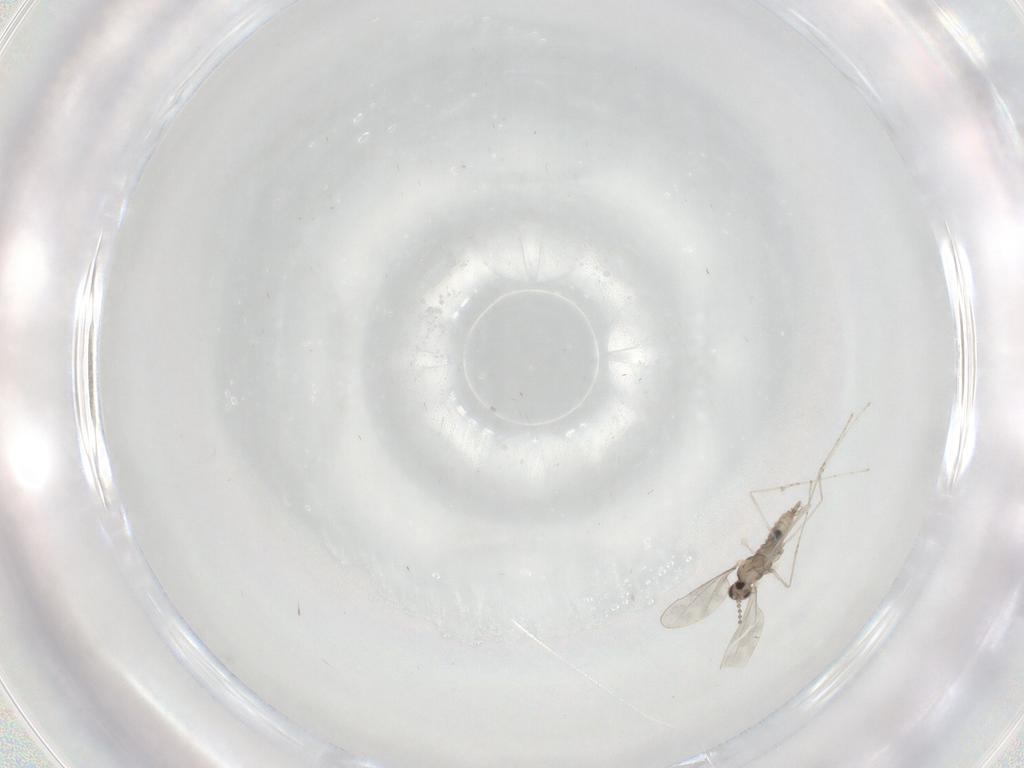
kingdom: Animalia
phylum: Arthropoda
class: Insecta
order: Diptera
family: Cecidomyiidae
